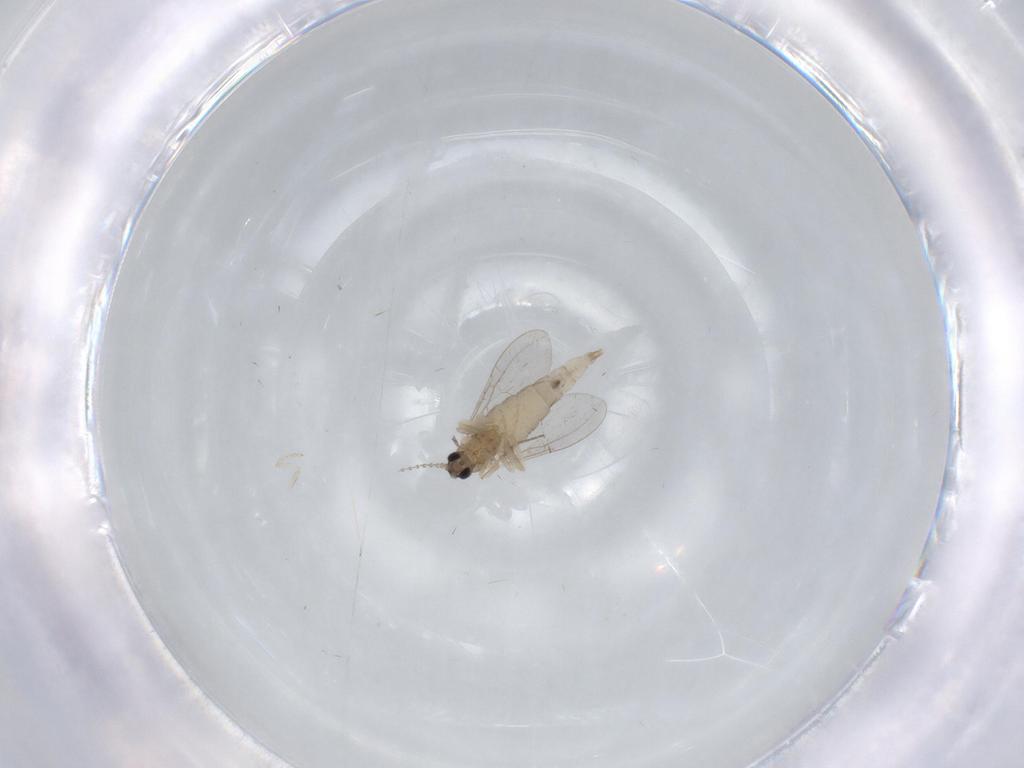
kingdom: Animalia
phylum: Arthropoda
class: Insecta
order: Diptera
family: Cecidomyiidae
